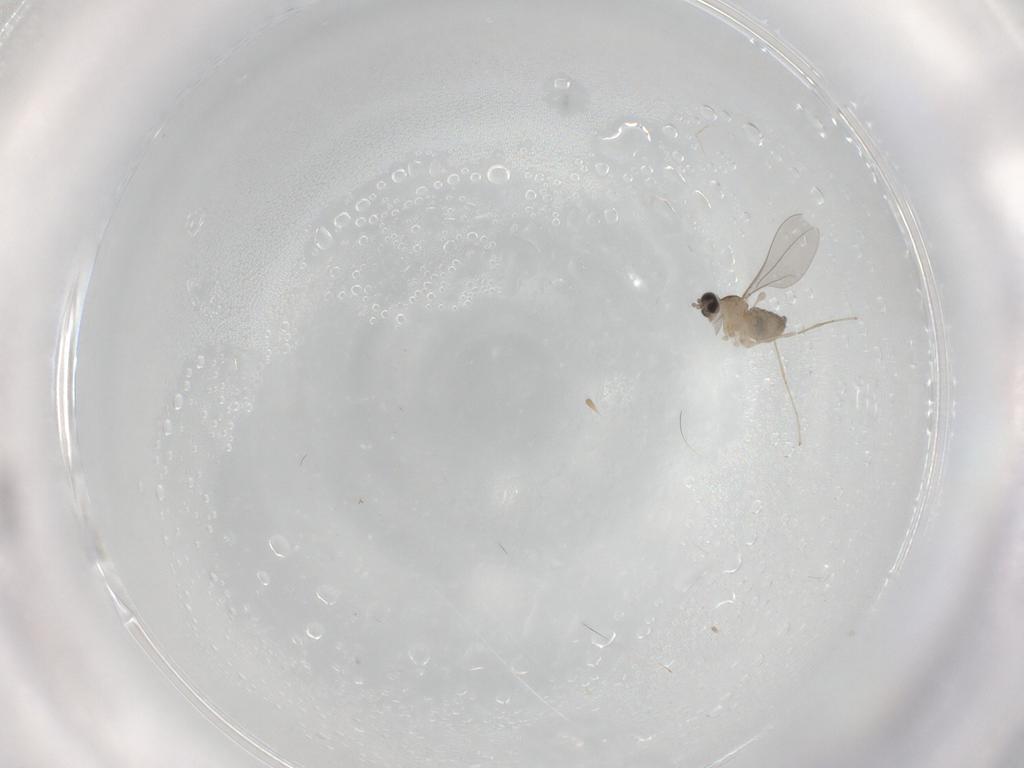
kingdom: Animalia
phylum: Arthropoda
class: Insecta
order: Diptera
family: Cecidomyiidae
